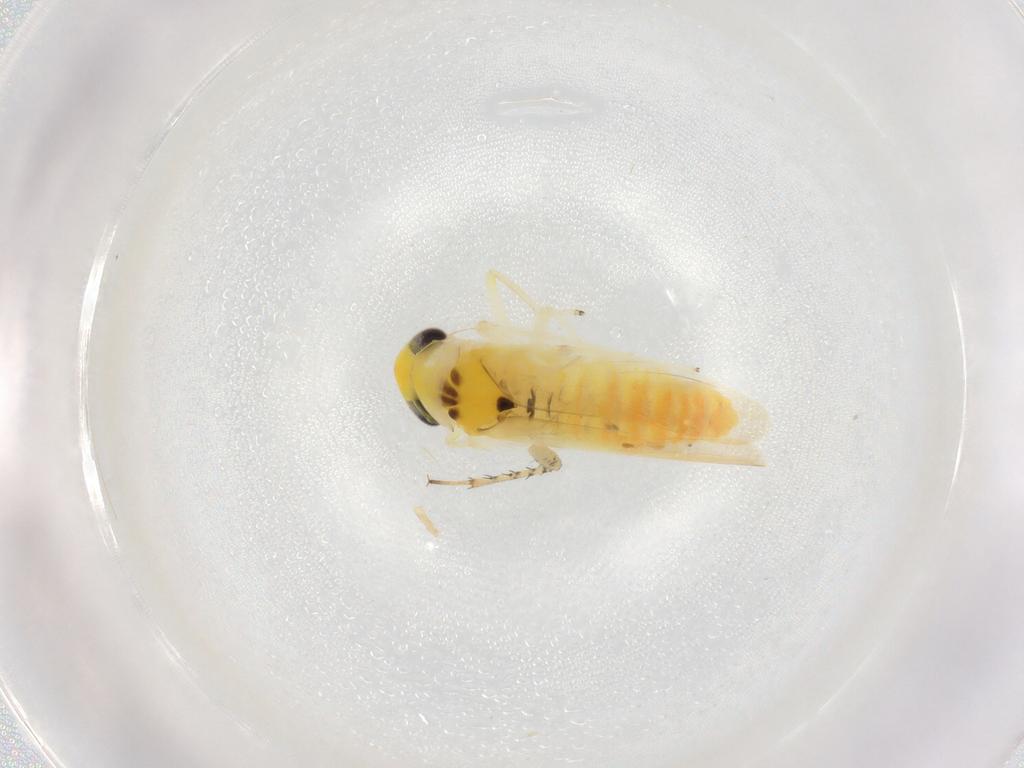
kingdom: Animalia
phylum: Arthropoda
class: Insecta
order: Hemiptera
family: Cicadellidae
